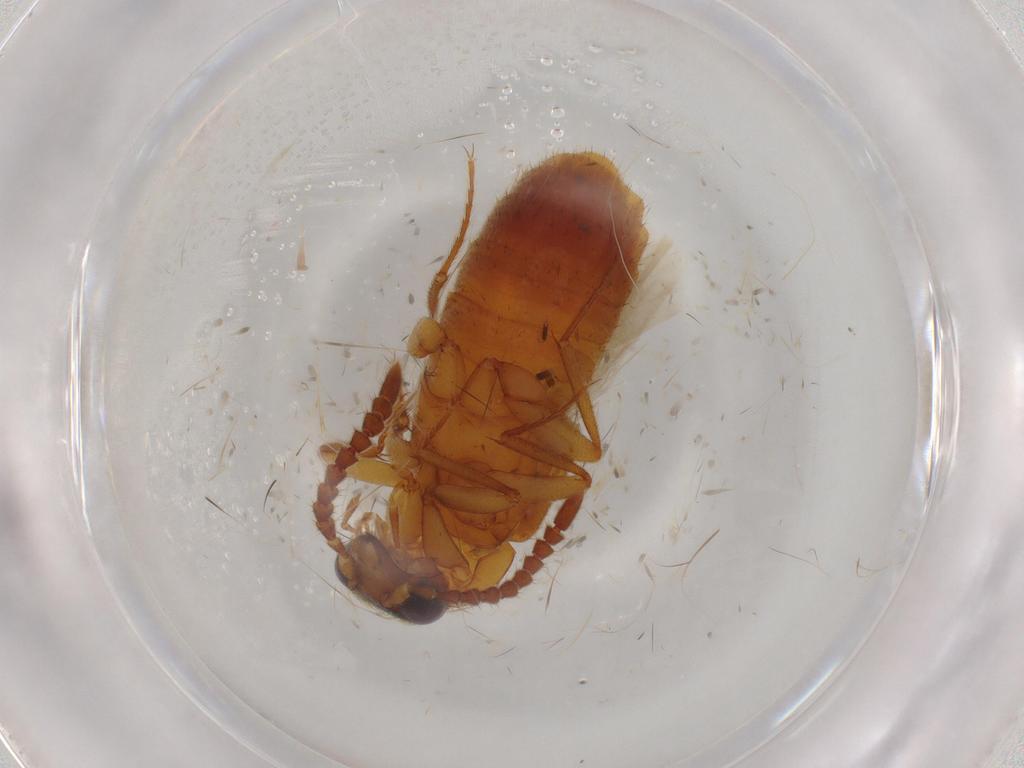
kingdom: Animalia
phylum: Arthropoda
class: Insecta
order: Coleoptera
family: Staphylinidae
